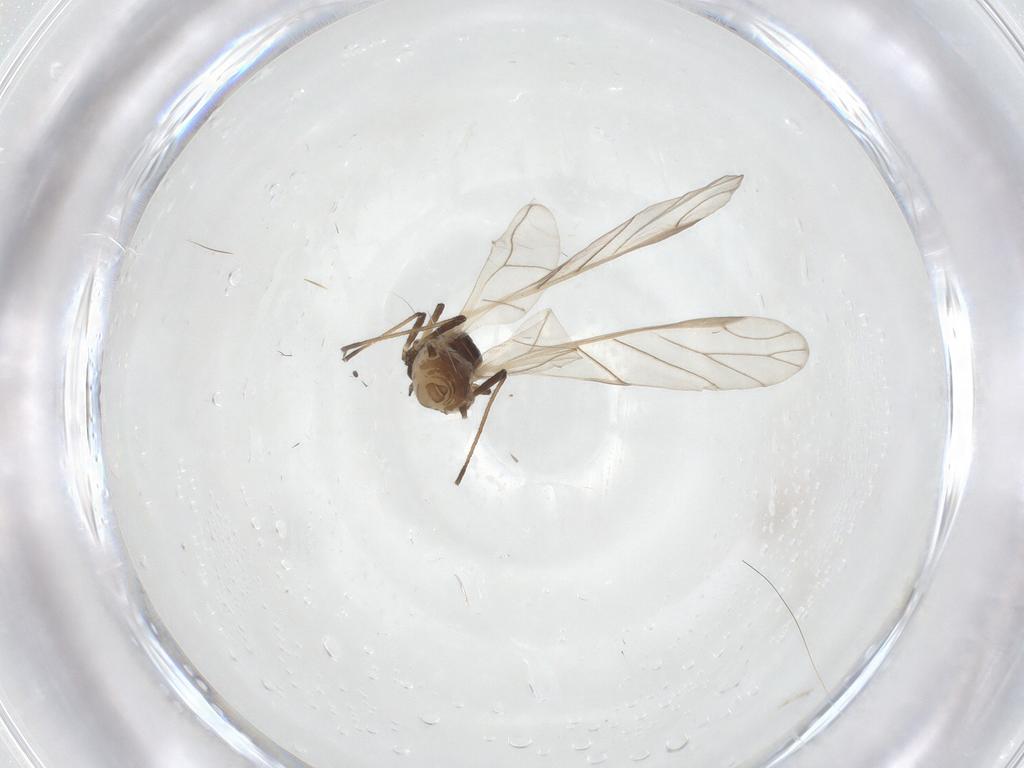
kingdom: Animalia
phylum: Arthropoda
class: Insecta
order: Hemiptera
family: Aphididae
